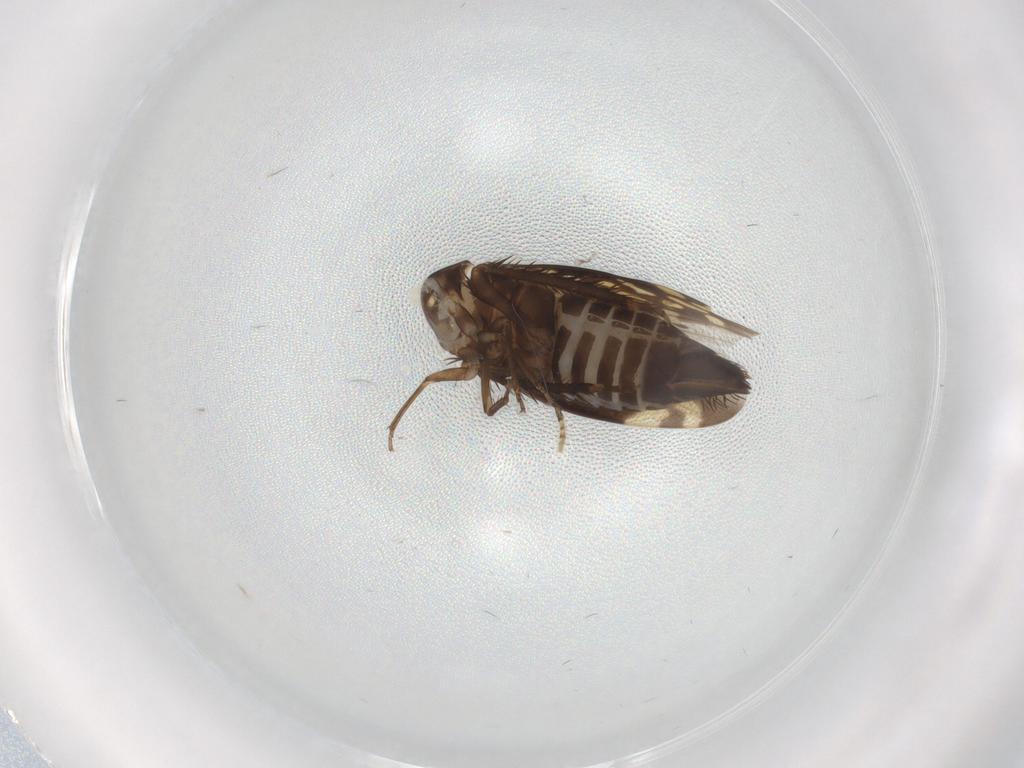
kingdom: Animalia
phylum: Arthropoda
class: Insecta
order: Hemiptera
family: Cicadellidae
